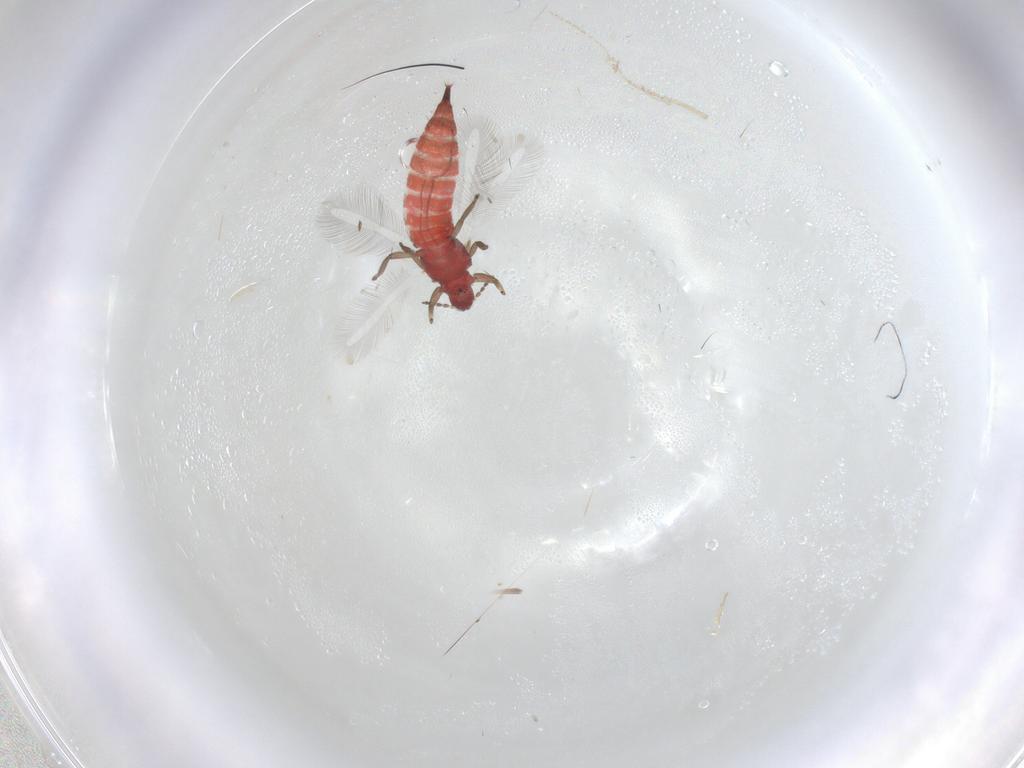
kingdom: Animalia
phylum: Arthropoda
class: Insecta
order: Thysanoptera
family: Phlaeothripidae
